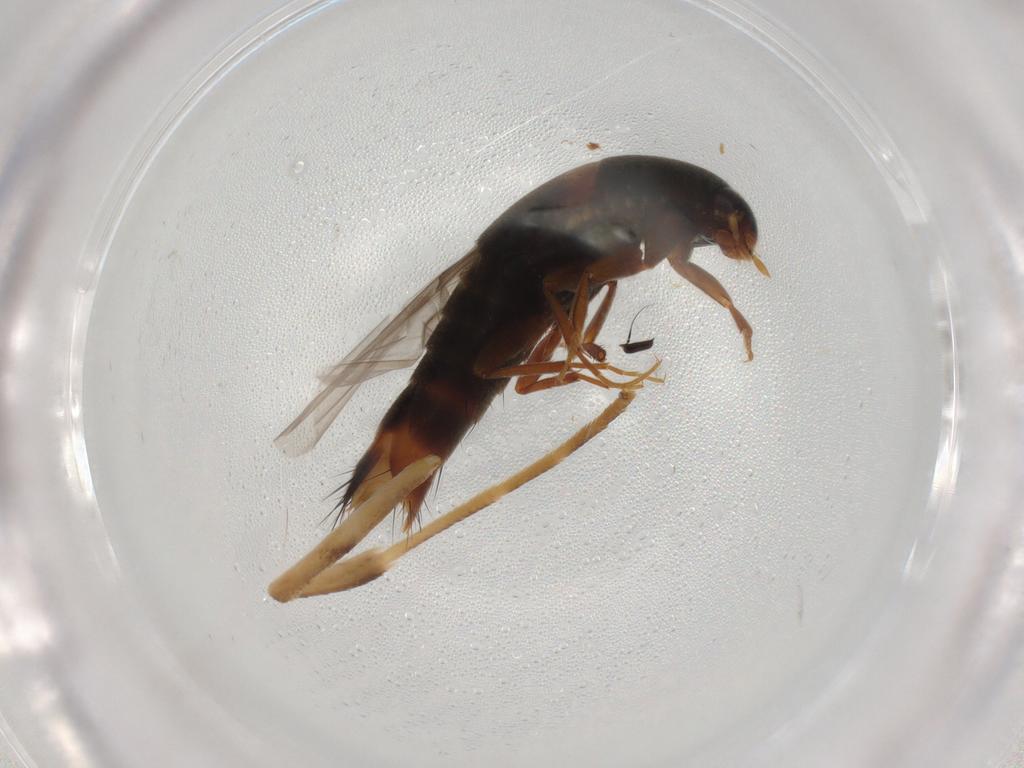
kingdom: Animalia
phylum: Arthropoda
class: Insecta
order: Coleoptera
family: Staphylinidae
